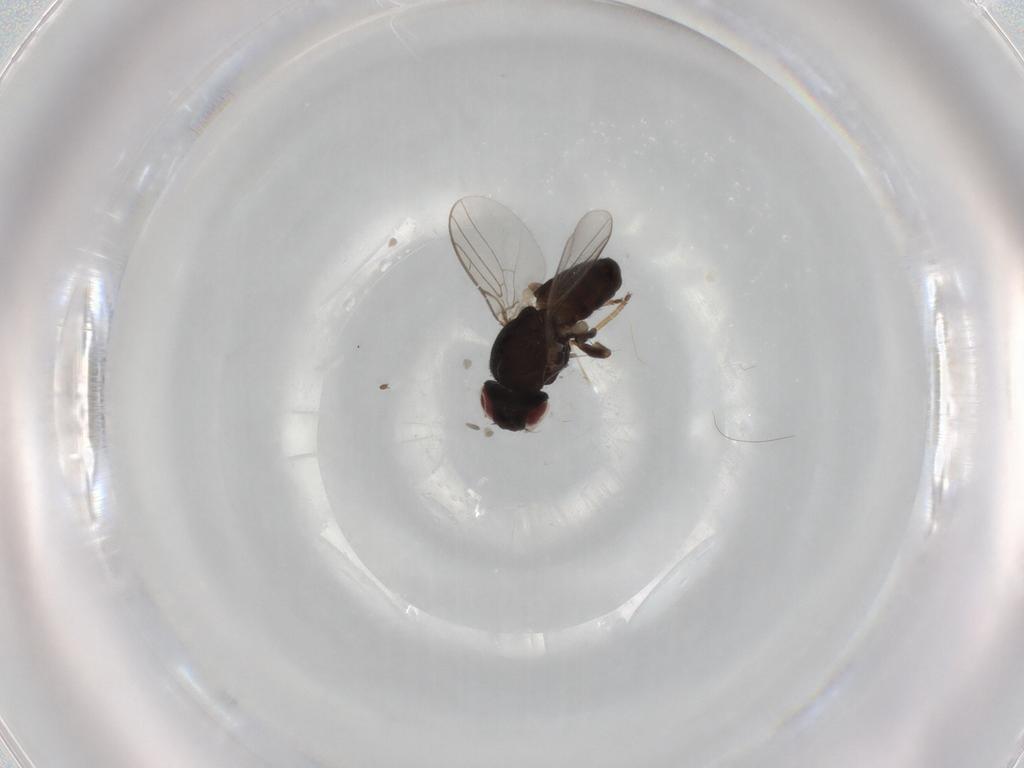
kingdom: Animalia
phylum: Arthropoda
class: Insecta
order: Diptera
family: Chloropidae
